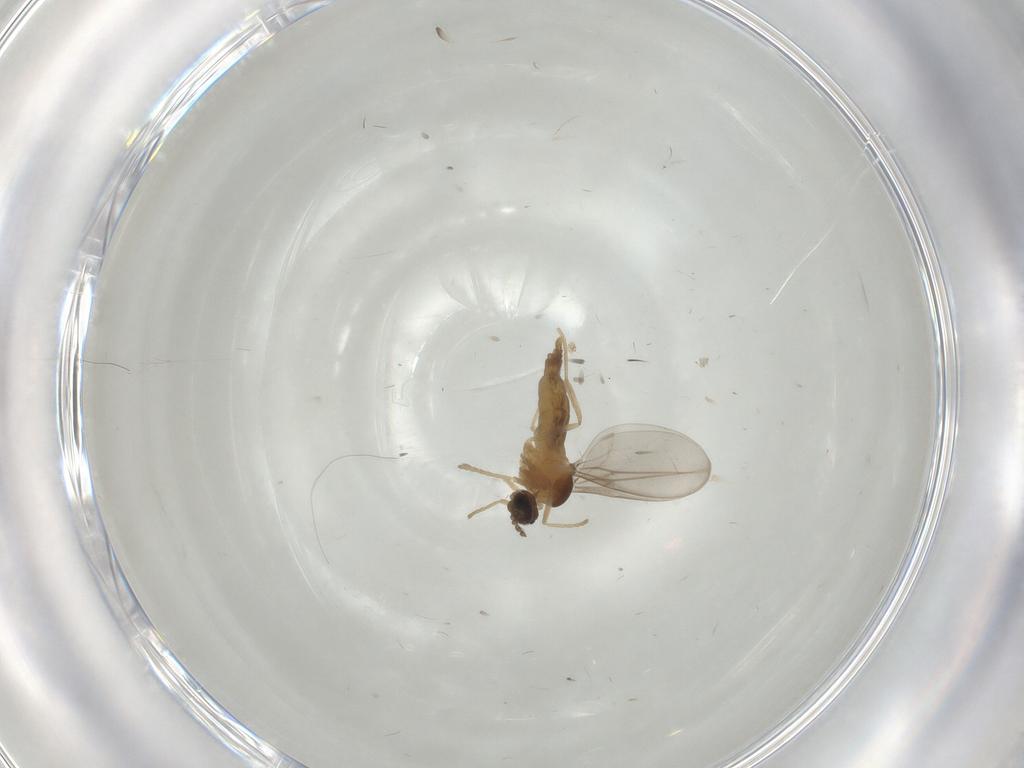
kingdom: Animalia
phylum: Arthropoda
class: Insecta
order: Diptera
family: Cecidomyiidae
